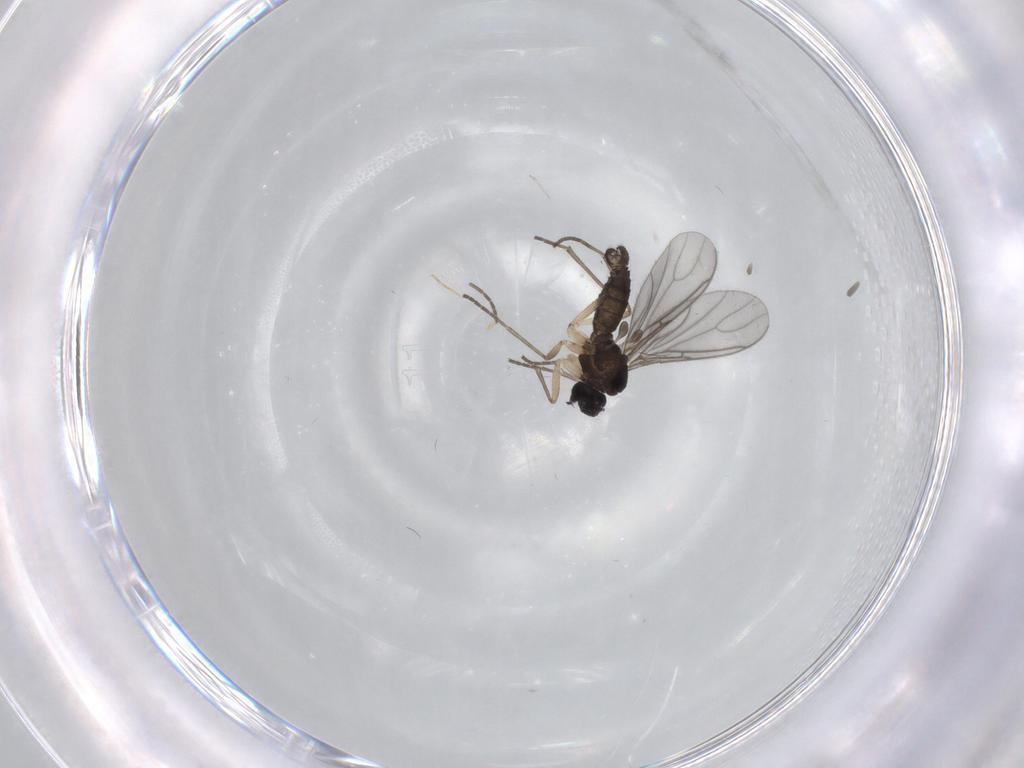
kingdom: Animalia
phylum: Arthropoda
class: Insecta
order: Diptera
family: Sciaridae
